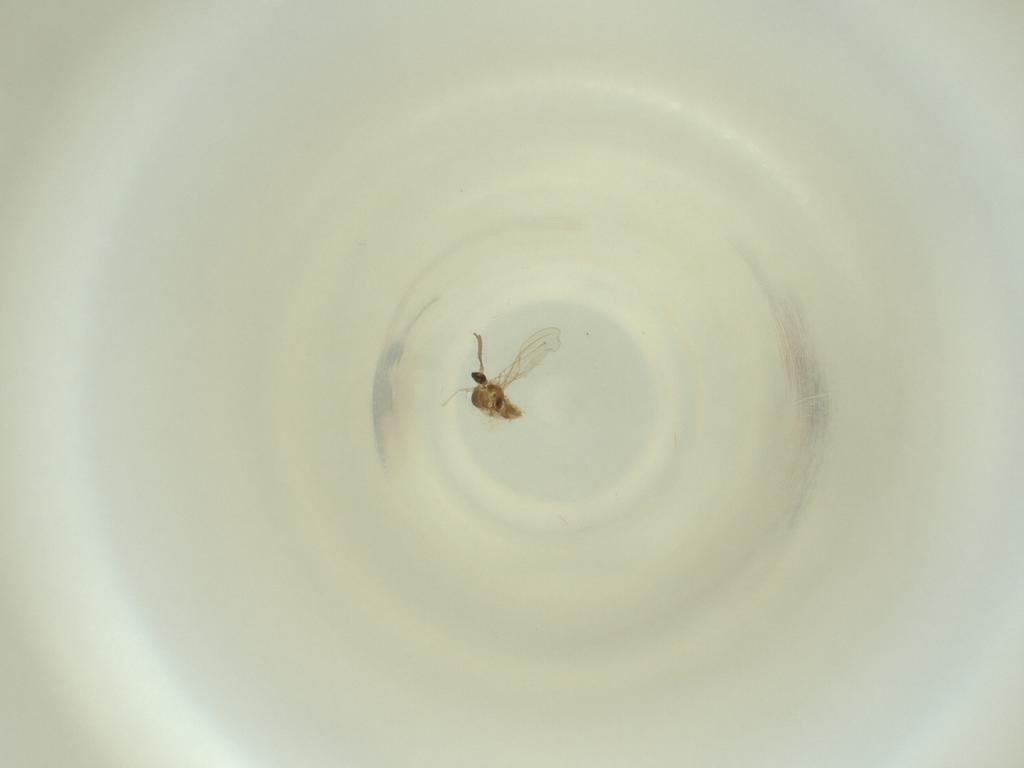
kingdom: Animalia
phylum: Arthropoda
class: Insecta
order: Diptera
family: Cecidomyiidae
